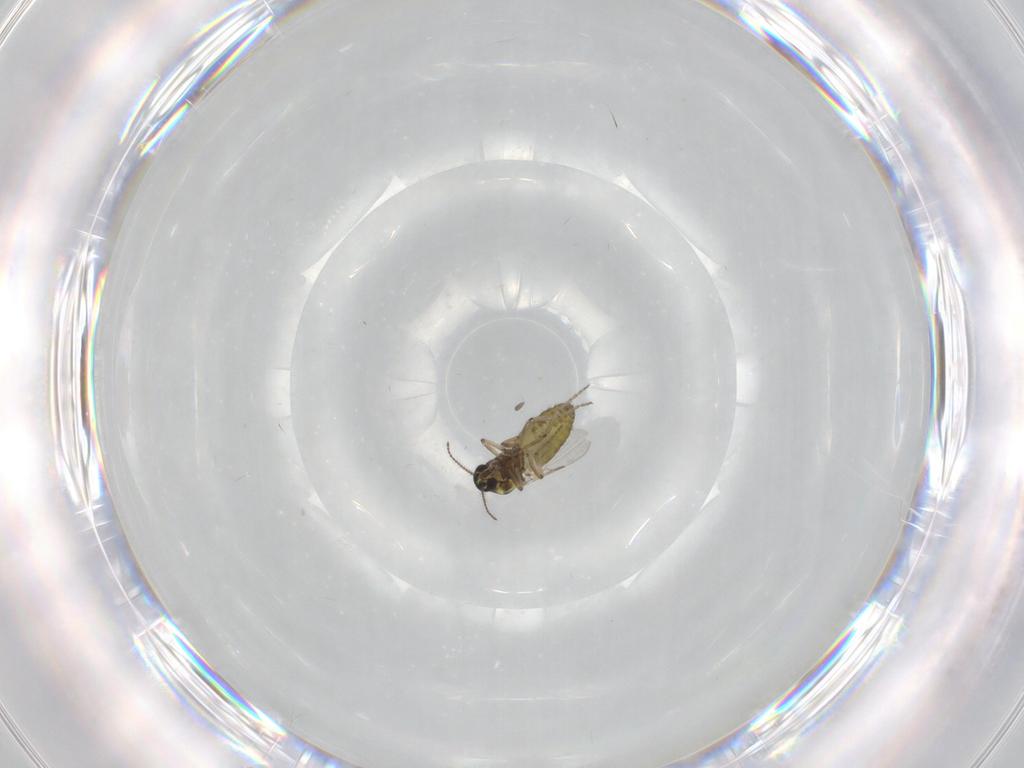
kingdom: Animalia
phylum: Arthropoda
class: Insecta
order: Diptera
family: Ceratopogonidae
